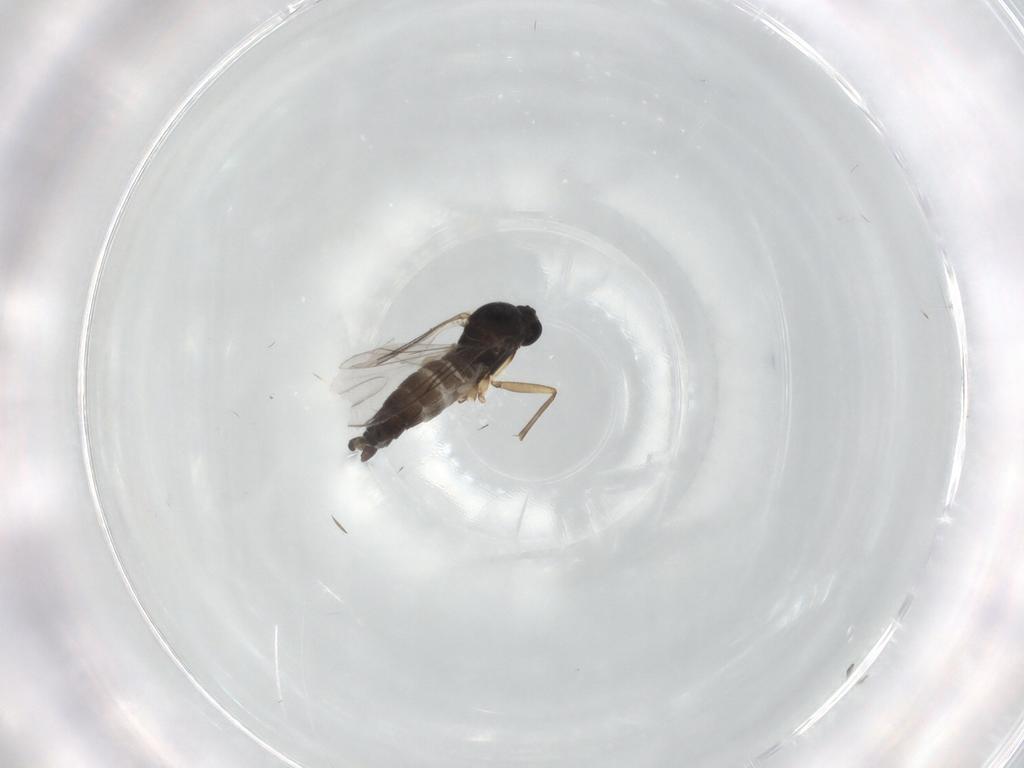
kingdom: Animalia
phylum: Arthropoda
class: Insecta
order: Diptera
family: Sciaridae
